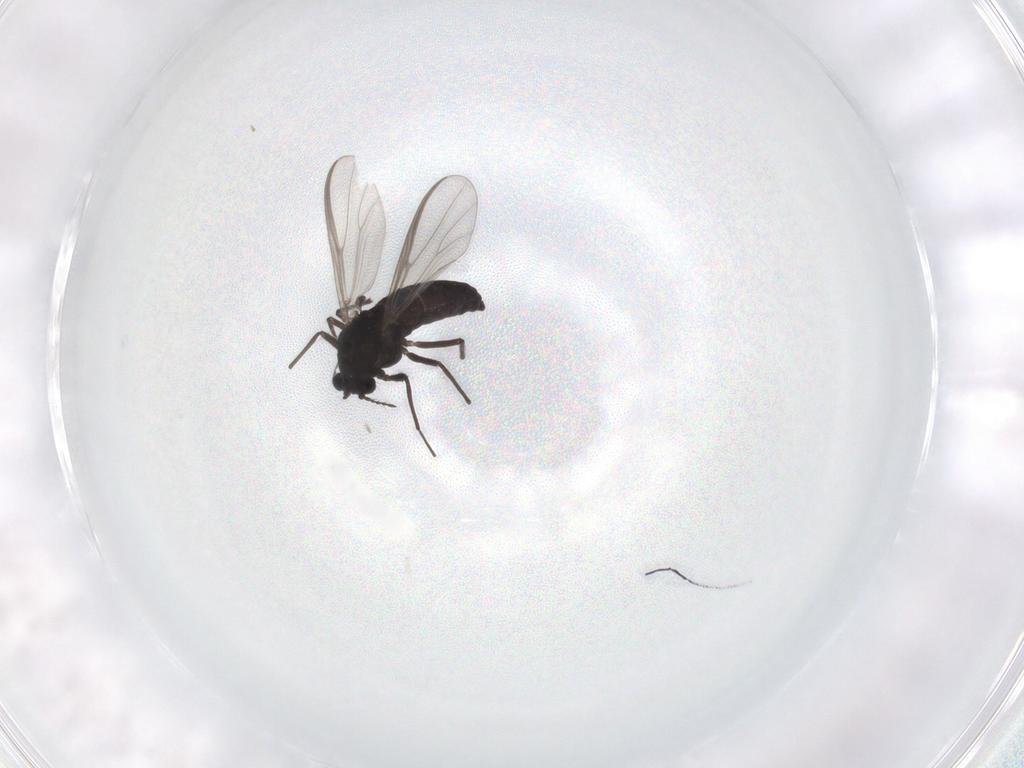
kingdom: Animalia
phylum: Arthropoda
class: Insecta
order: Diptera
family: Chironomidae
